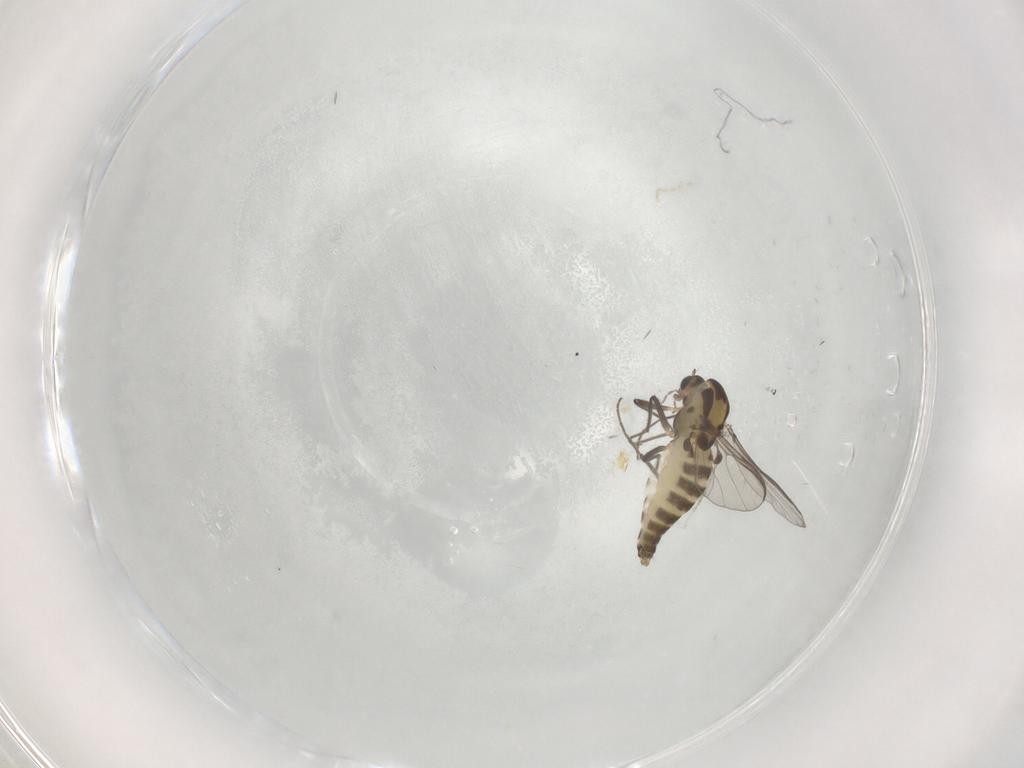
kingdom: Animalia
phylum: Arthropoda
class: Insecta
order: Diptera
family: Chironomidae
